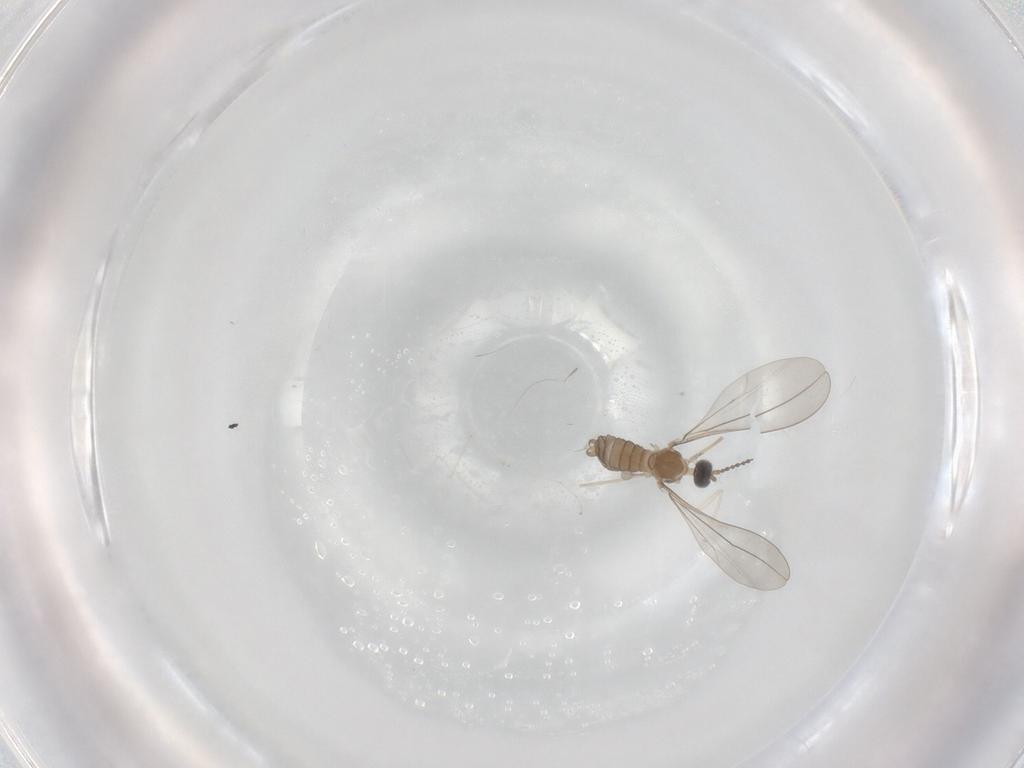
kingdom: Animalia
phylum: Arthropoda
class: Insecta
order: Diptera
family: Cecidomyiidae
